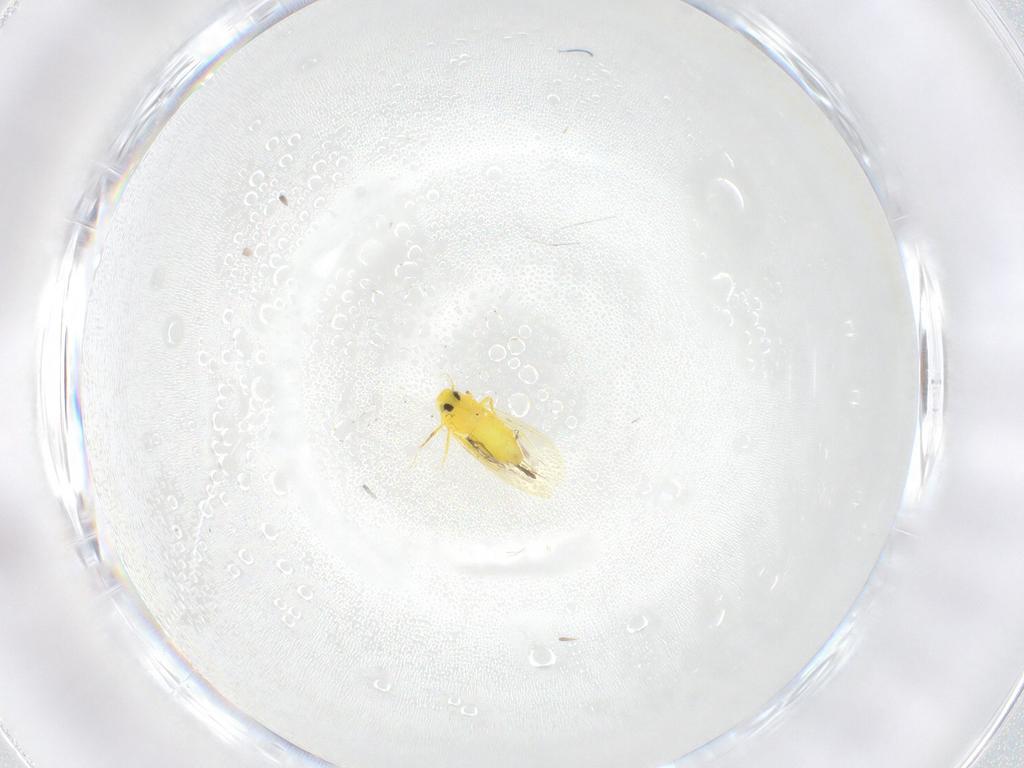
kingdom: Animalia
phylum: Arthropoda
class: Insecta
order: Hemiptera
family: Aleyrodidae
